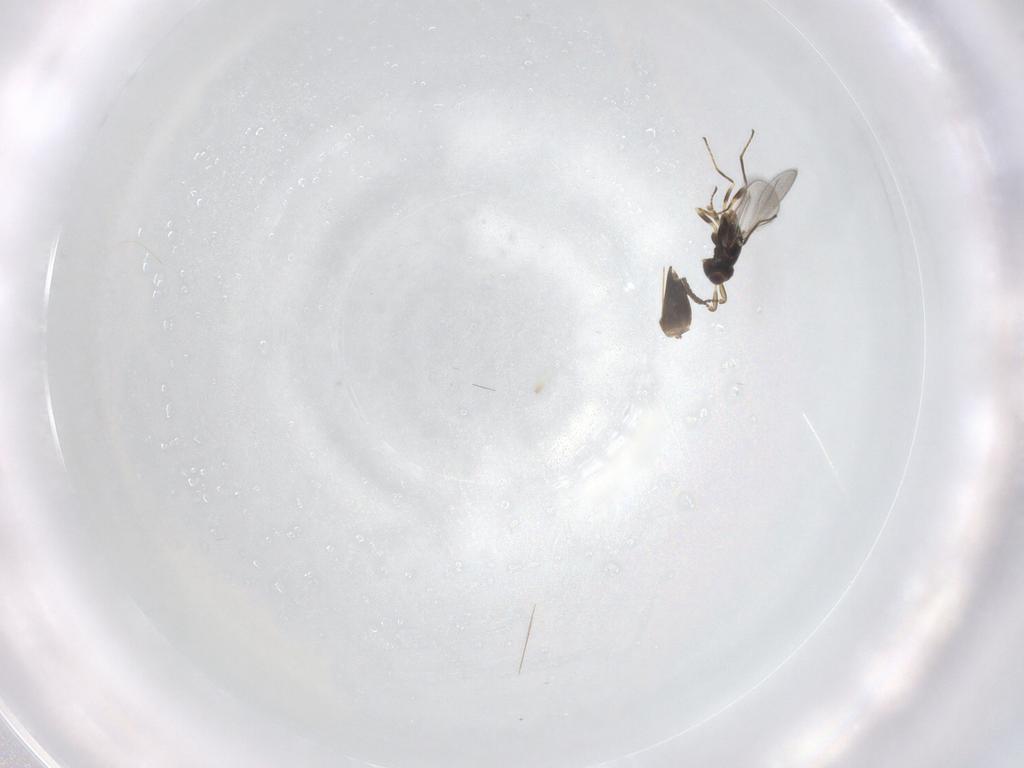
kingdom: Animalia
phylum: Arthropoda
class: Insecta
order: Hymenoptera
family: Mymaridae
